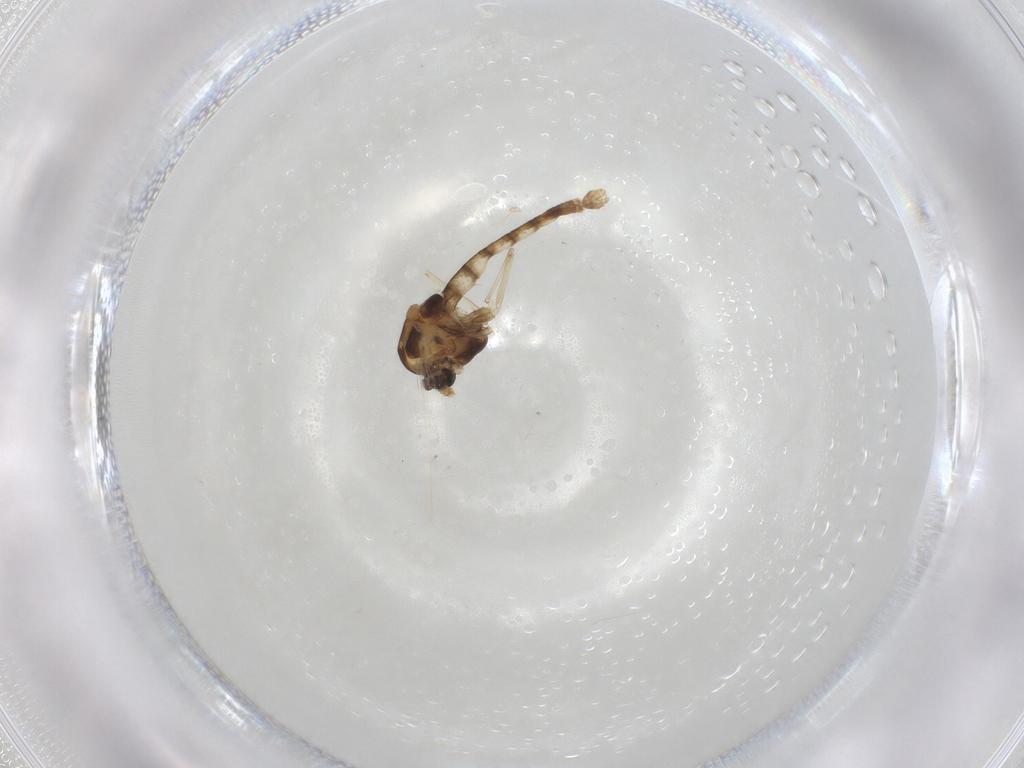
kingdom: Animalia
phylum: Arthropoda
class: Insecta
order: Diptera
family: Chironomidae
